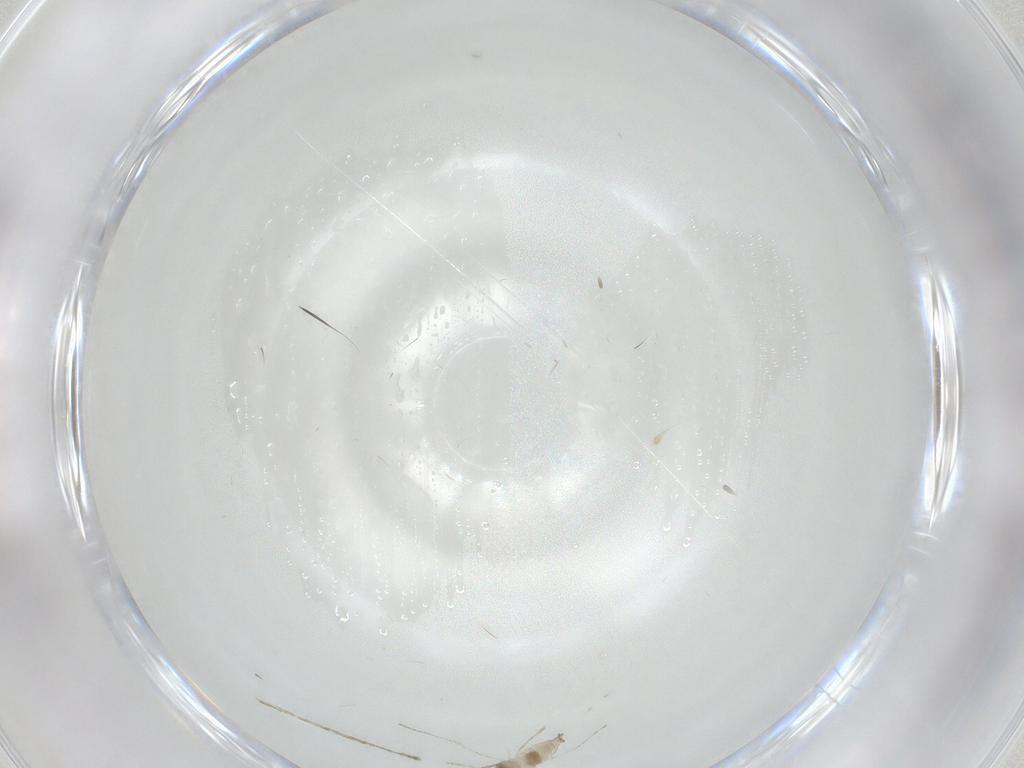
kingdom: Animalia
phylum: Arthropoda
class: Insecta
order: Diptera
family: Cecidomyiidae
